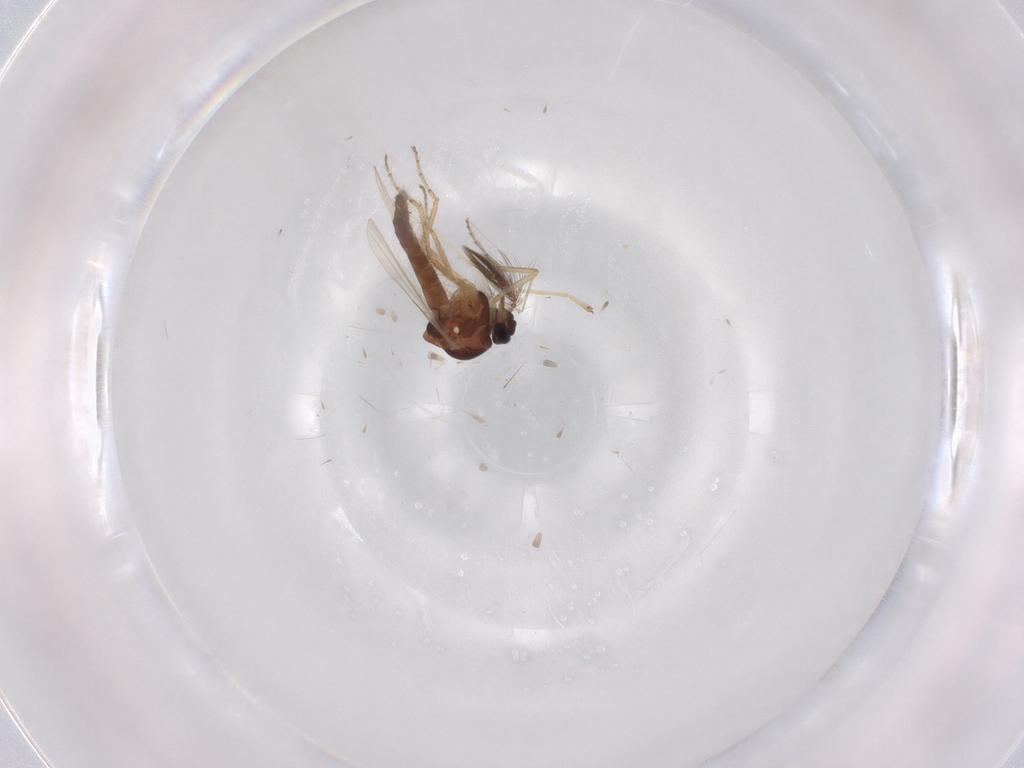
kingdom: Animalia
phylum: Arthropoda
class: Insecta
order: Diptera
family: Cecidomyiidae
